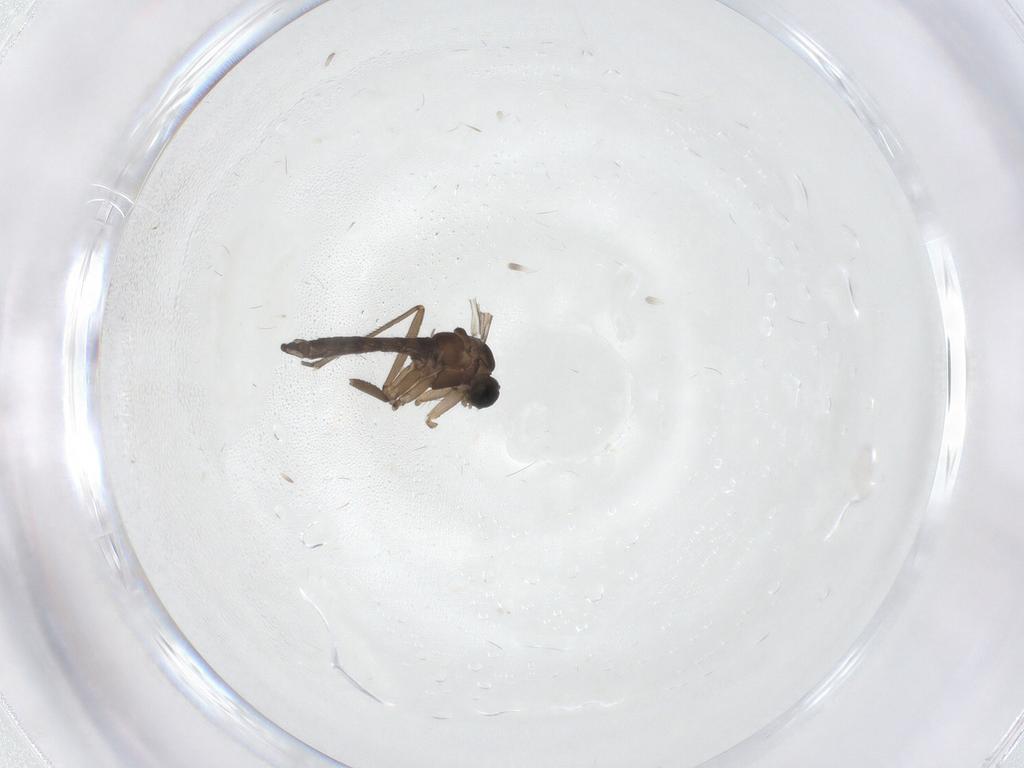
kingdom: Animalia
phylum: Arthropoda
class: Insecta
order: Diptera
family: Sciaridae
